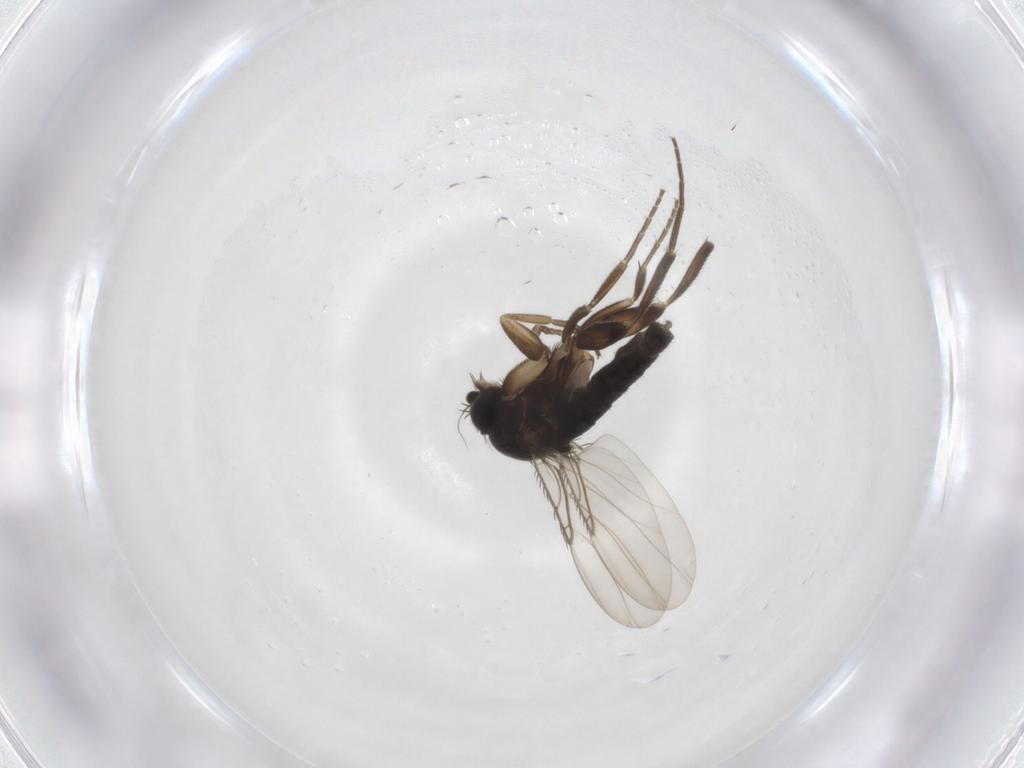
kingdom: Animalia
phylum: Arthropoda
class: Insecta
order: Diptera
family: Phoridae
